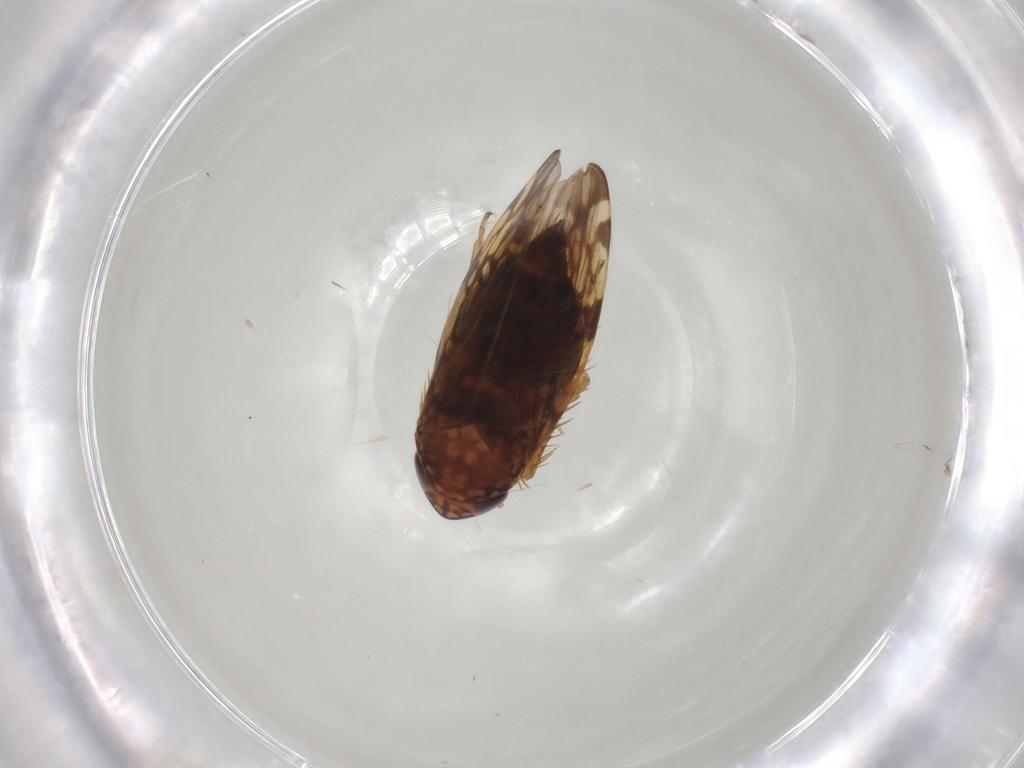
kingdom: Animalia
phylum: Arthropoda
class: Insecta
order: Hemiptera
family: Cicadellidae
